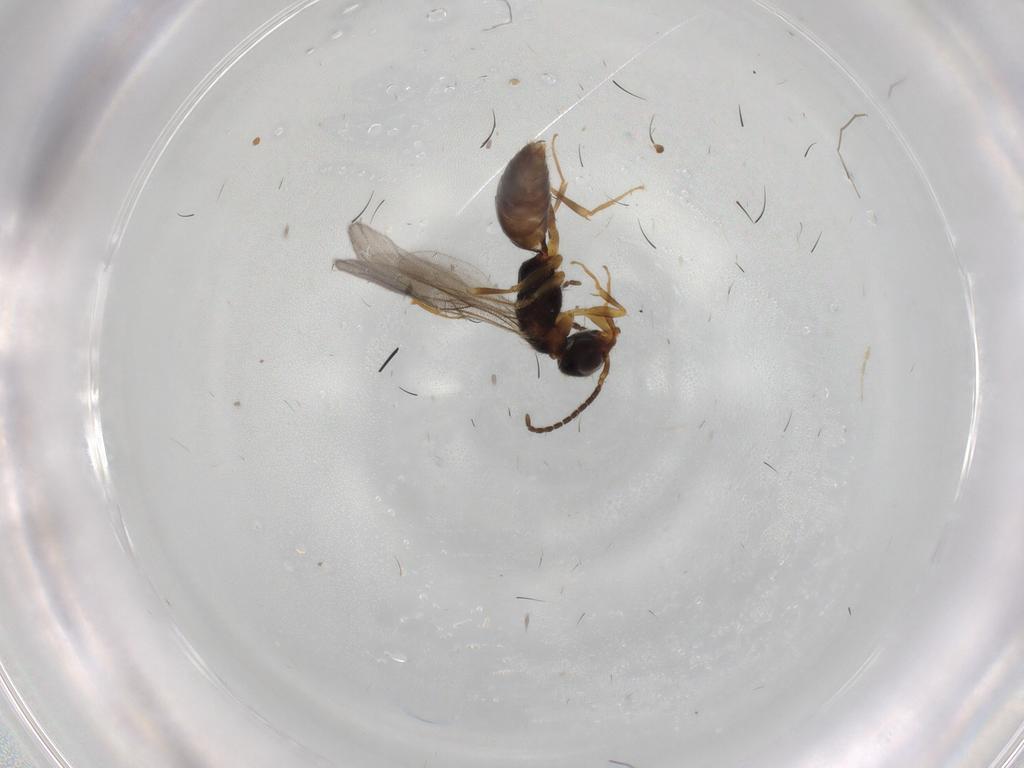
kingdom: Animalia
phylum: Arthropoda
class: Insecta
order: Hymenoptera
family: Bethylidae
